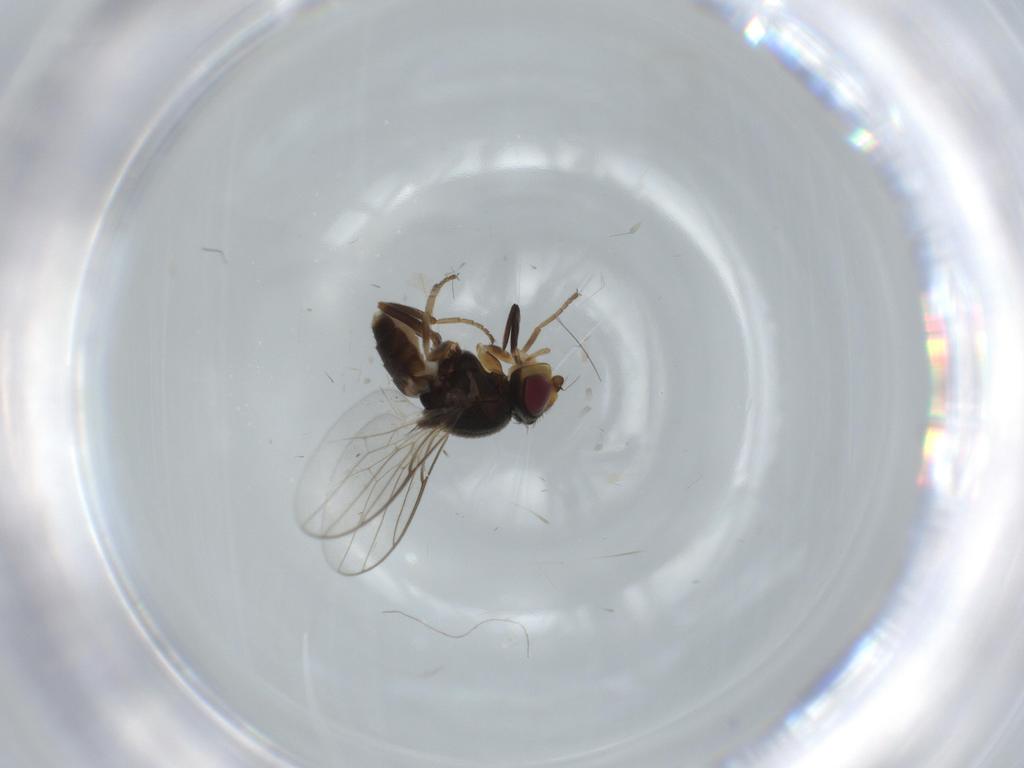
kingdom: Animalia
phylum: Arthropoda
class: Insecta
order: Diptera
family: Chloropidae
